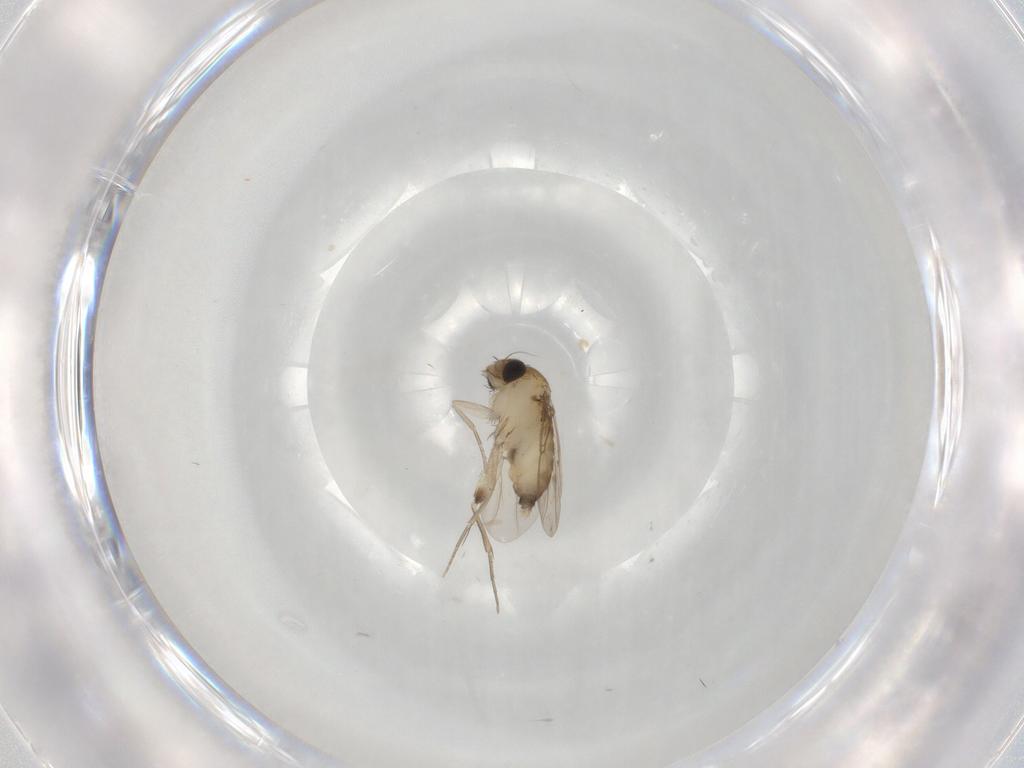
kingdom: Animalia
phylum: Arthropoda
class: Insecta
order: Diptera
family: Phoridae
